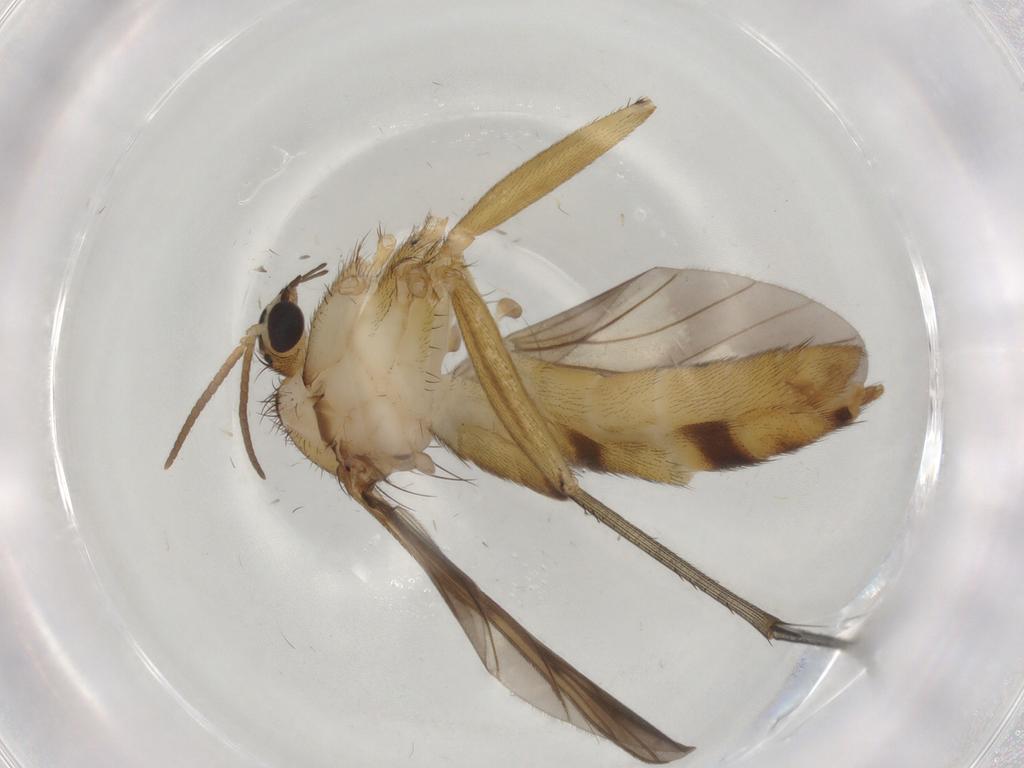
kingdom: Animalia
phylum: Arthropoda
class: Insecta
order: Diptera
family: Mycetophilidae
